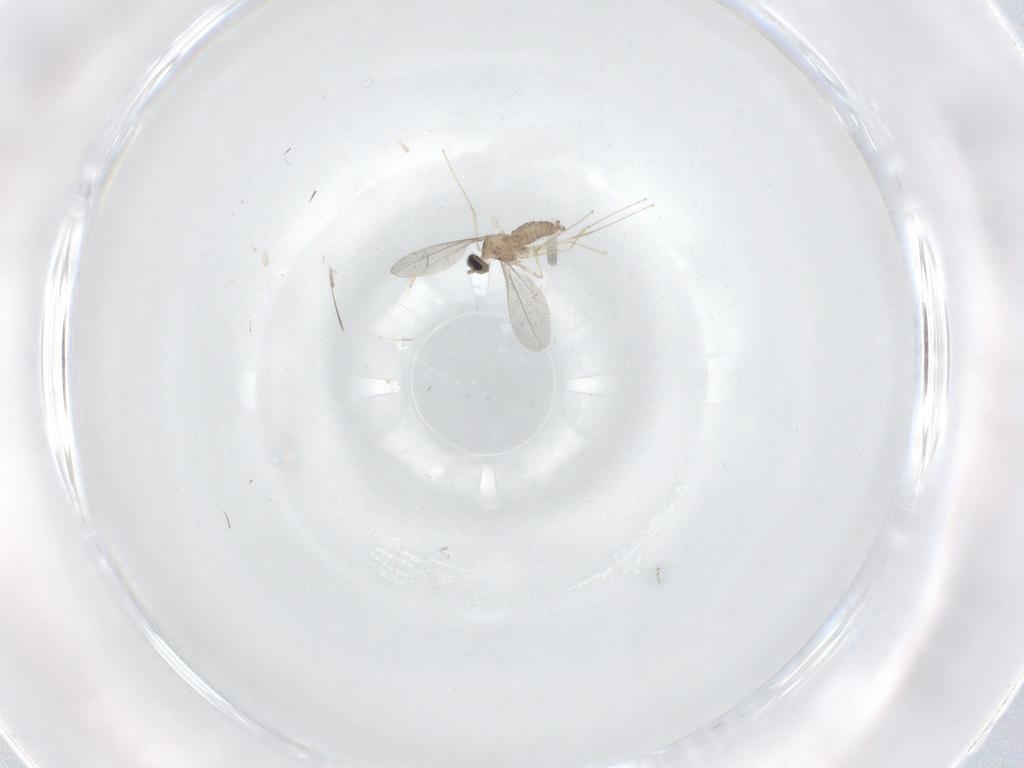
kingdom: Animalia
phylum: Arthropoda
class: Insecta
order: Diptera
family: Cecidomyiidae
